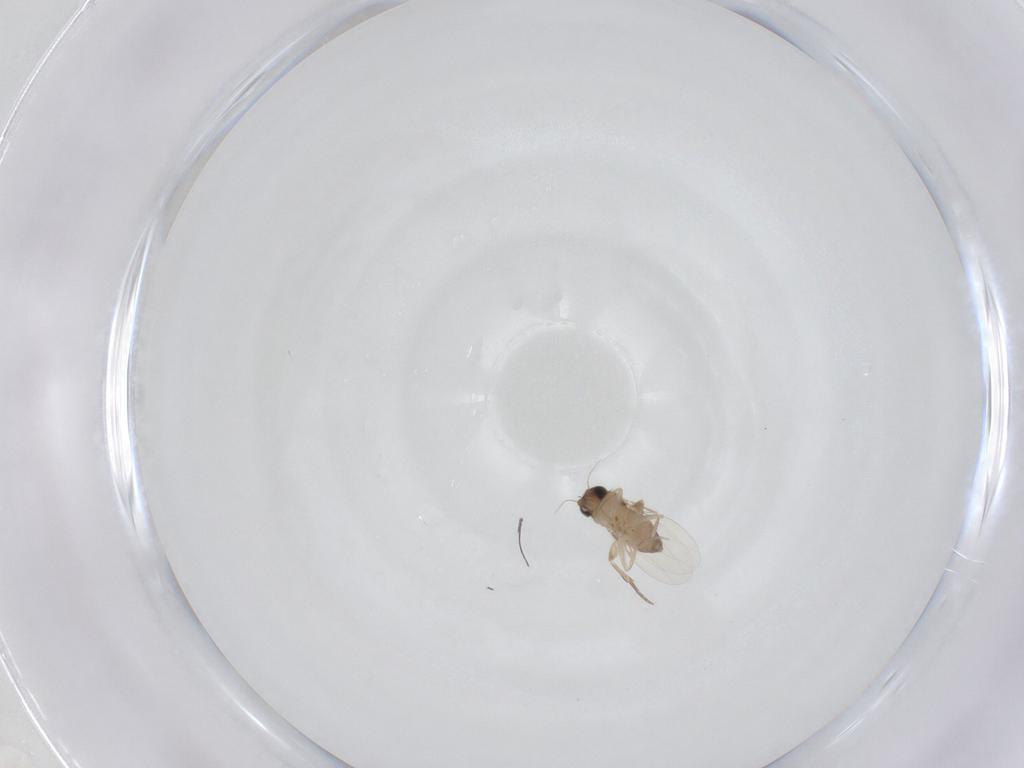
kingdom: Animalia
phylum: Arthropoda
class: Insecta
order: Diptera
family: Phoridae
